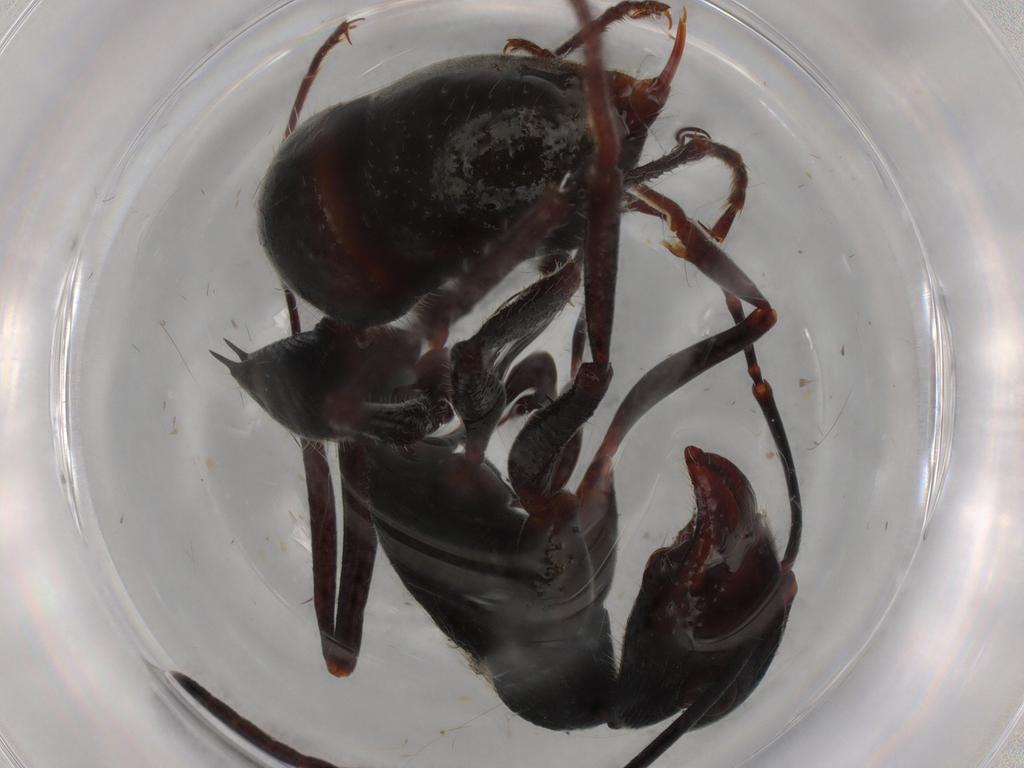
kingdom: Animalia
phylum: Arthropoda
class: Insecta
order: Hymenoptera
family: Formicidae
